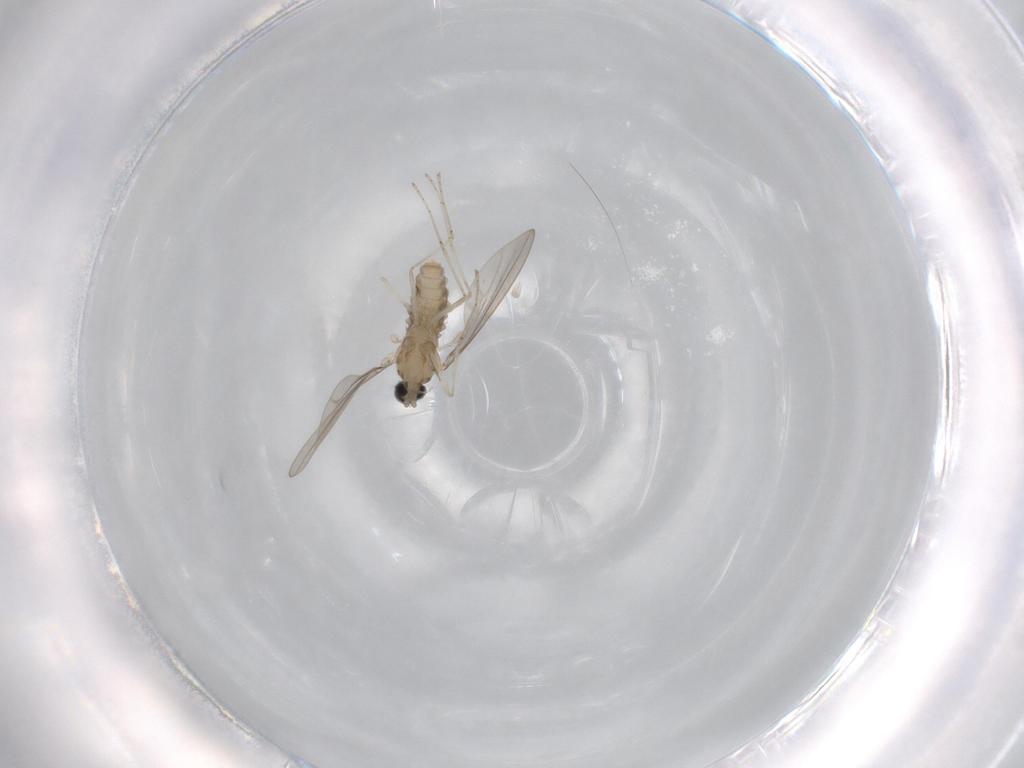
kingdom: Animalia
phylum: Arthropoda
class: Insecta
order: Diptera
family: Cecidomyiidae
